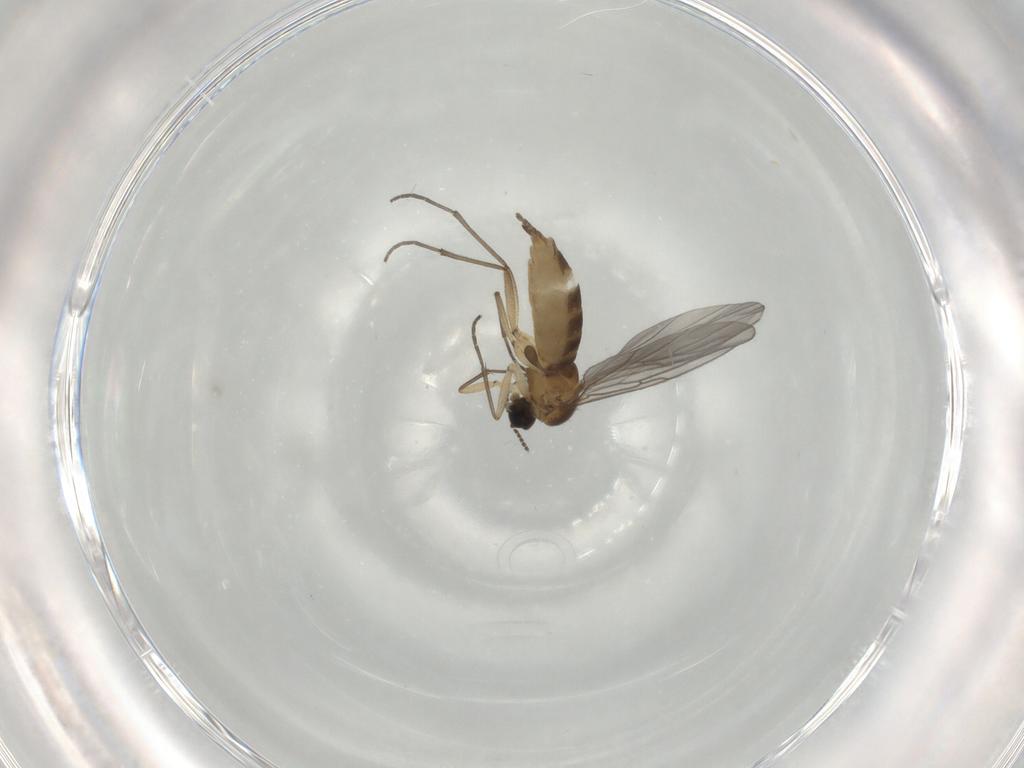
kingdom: Animalia
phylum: Arthropoda
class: Insecta
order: Diptera
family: Sciaridae
